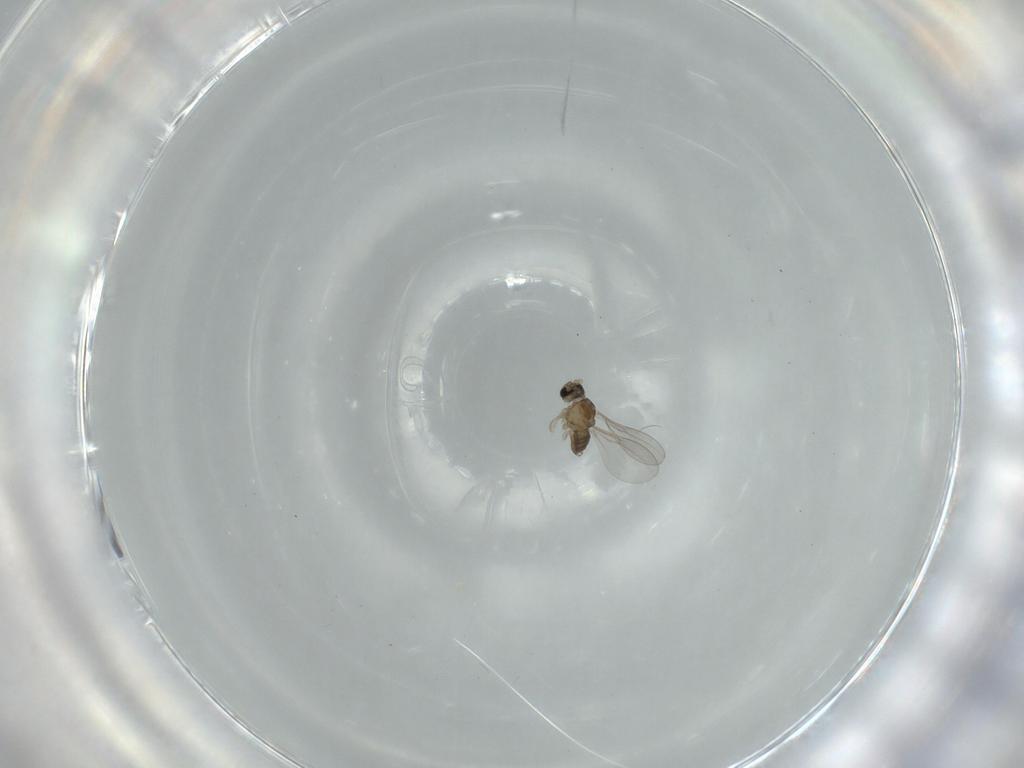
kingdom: Animalia
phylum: Arthropoda
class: Insecta
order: Diptera
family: Cecidomyiidae
